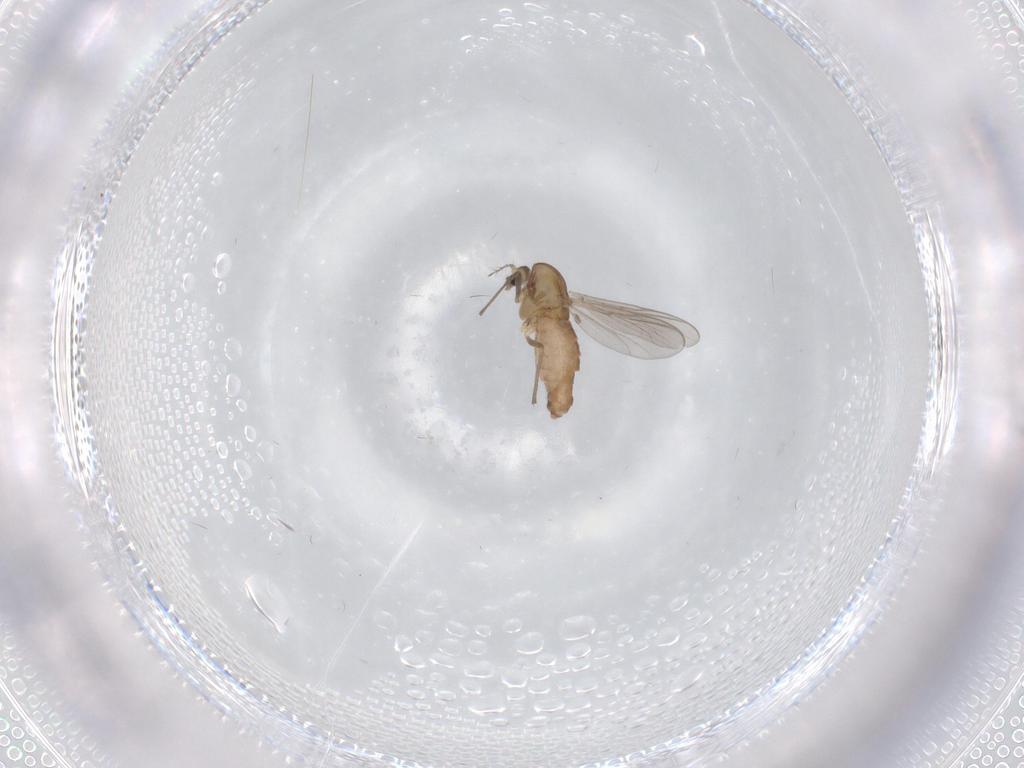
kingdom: Animalia
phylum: Arthropoda
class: Insecta
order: Diptera
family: Chironomidae
